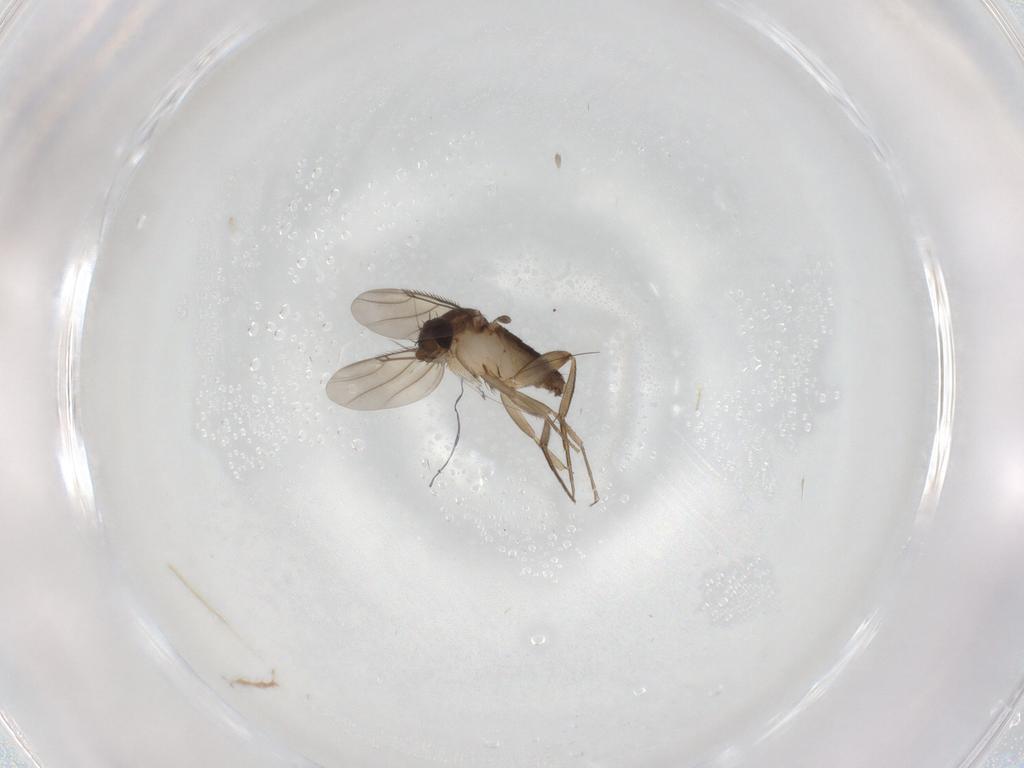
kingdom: Animalia
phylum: Arthropoda
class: Insecta
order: Diptera
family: Phoridae
